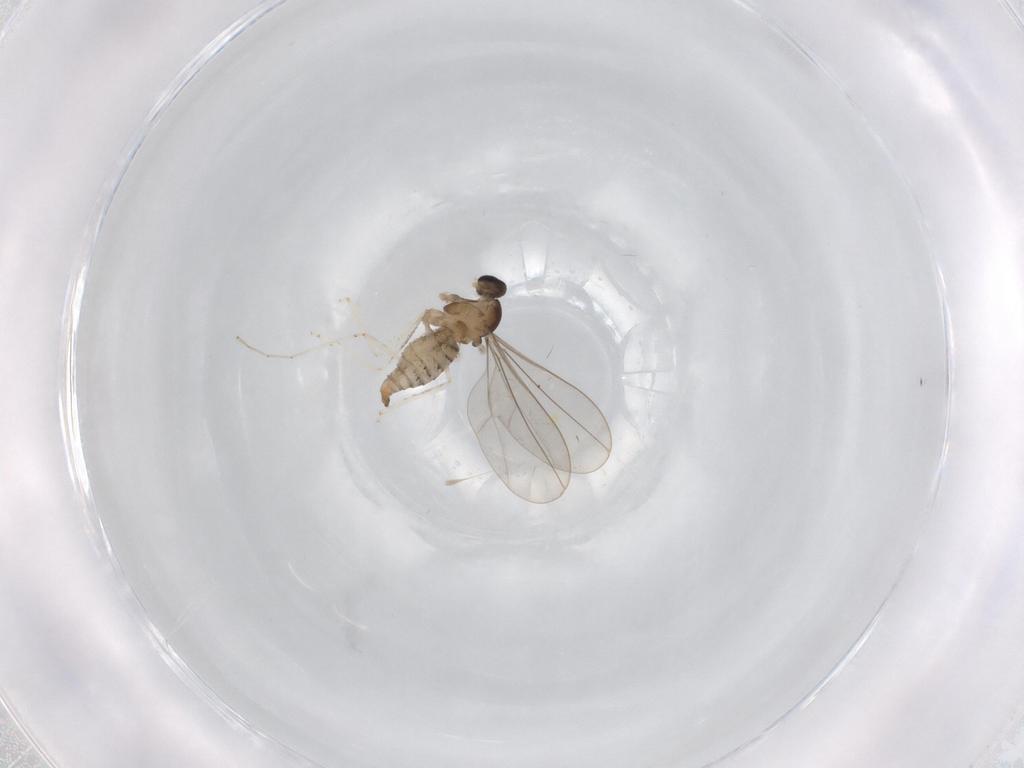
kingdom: Animalia
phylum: Arthropoda
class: Insecta
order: Diptera
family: Cecidomyiidae
